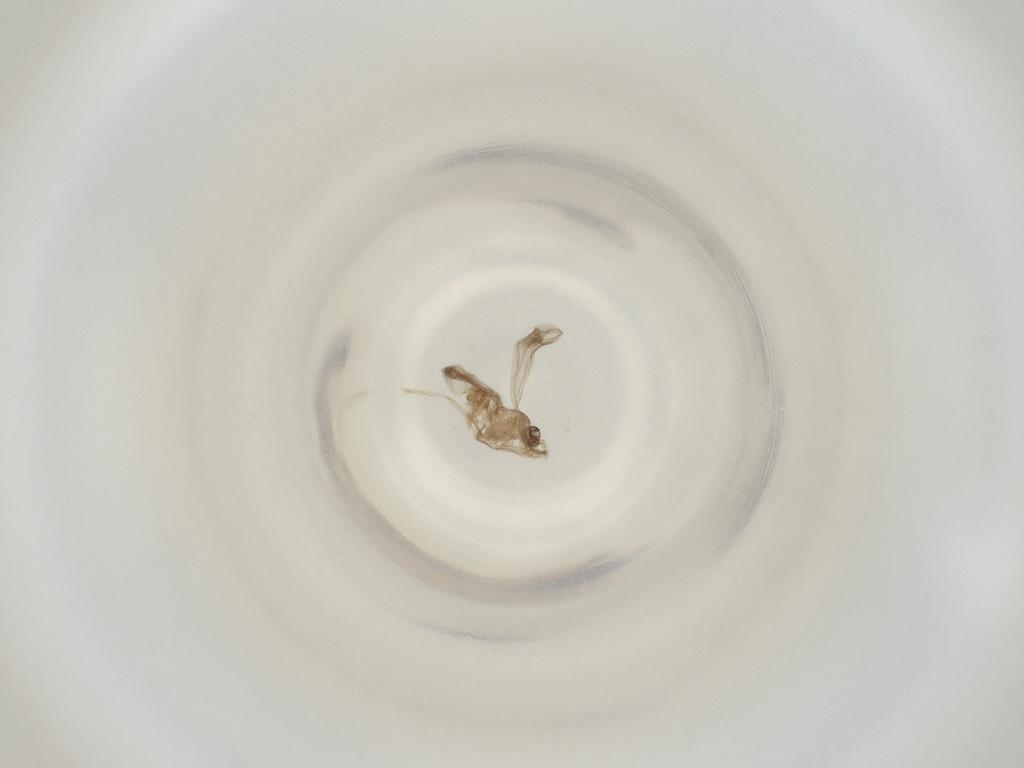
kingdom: Animalia
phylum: Arthropoda
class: Insecta
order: Diptera
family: Cecidomyiidae
